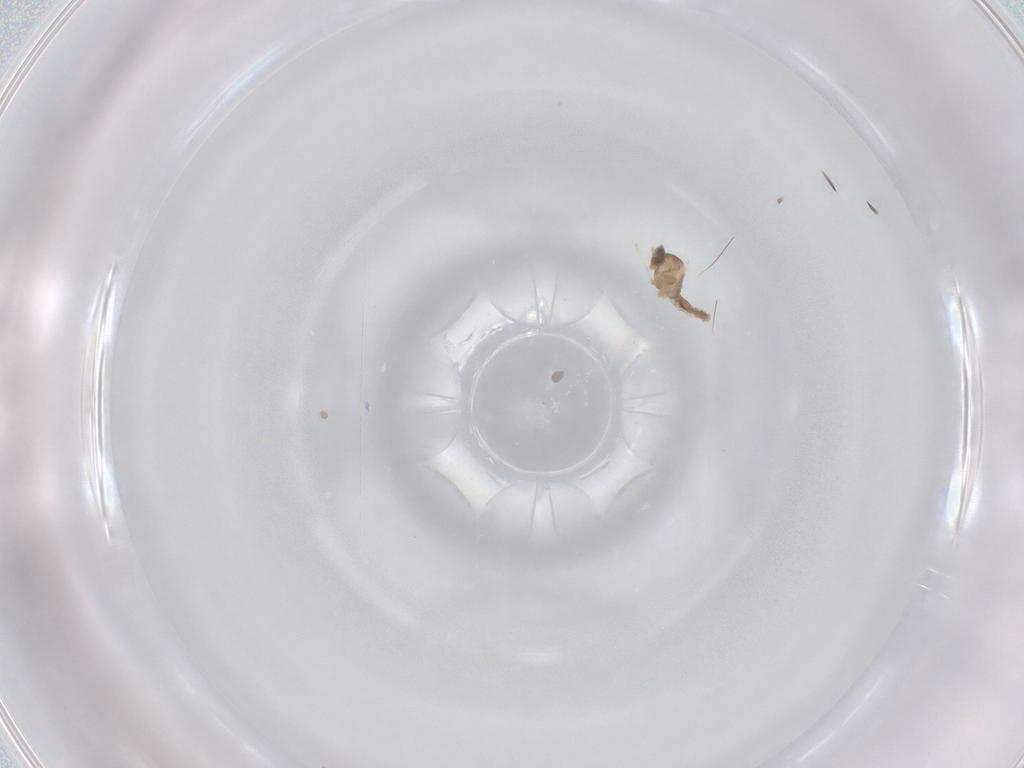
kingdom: Animalia
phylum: Arthropoda
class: Insecta
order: Diptera
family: Cecidomyiidae
